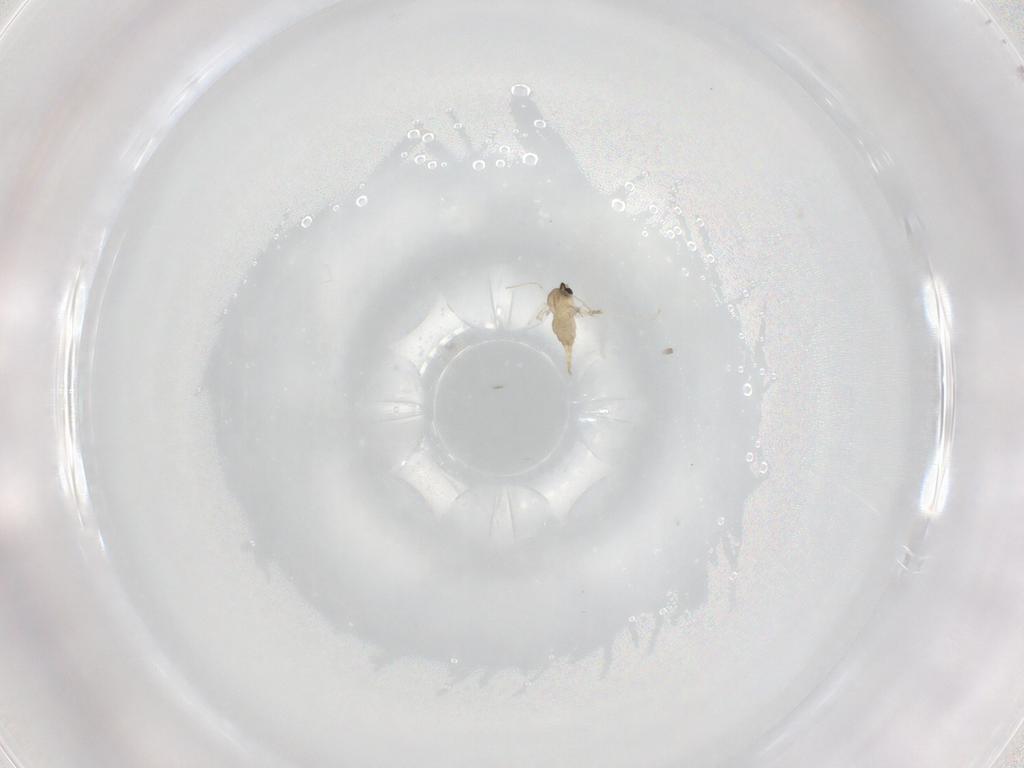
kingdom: Animalia
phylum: Arthropoda
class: Insecta
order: Diptera
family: Cecidomyiidae
